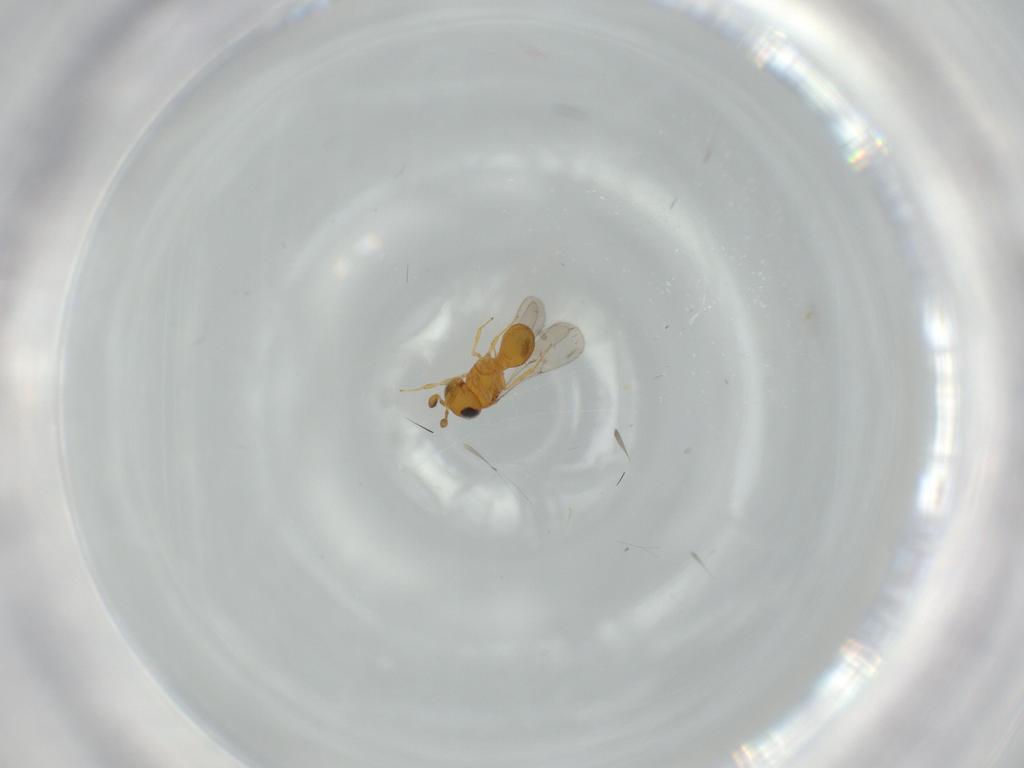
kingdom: Animalia
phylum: Arthropoda
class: Insecta
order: Hymenoptera
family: Scelionidae
